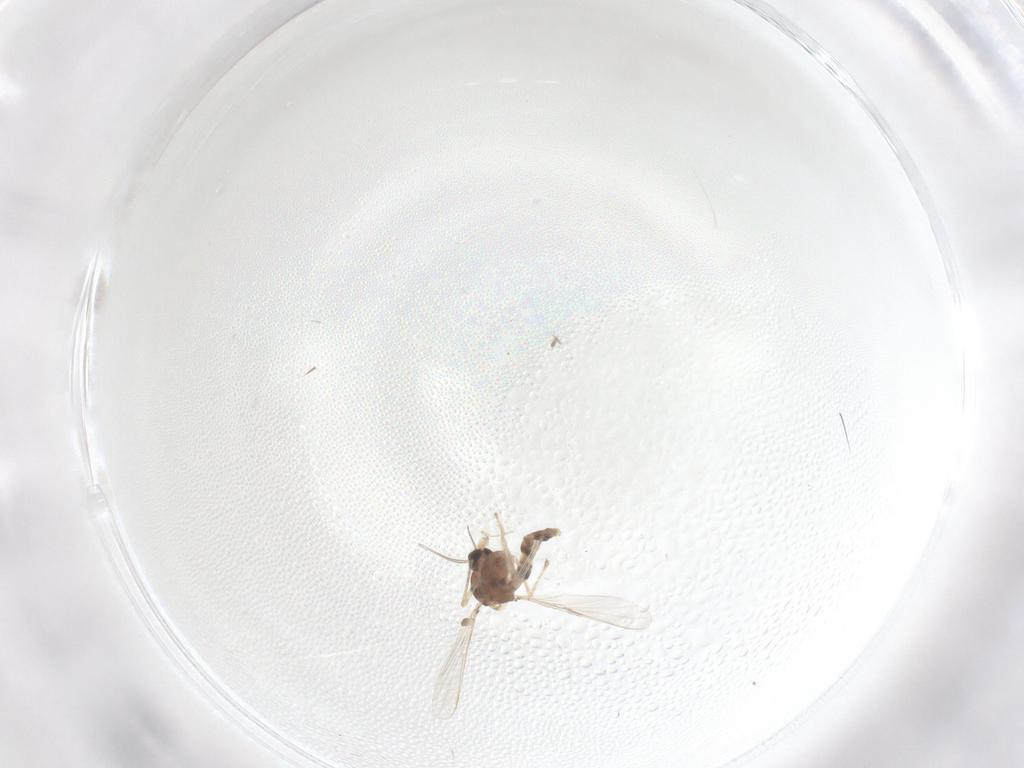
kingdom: Animalia
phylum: Arthropoda
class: Insecta
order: Diptera
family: Chironomidae
